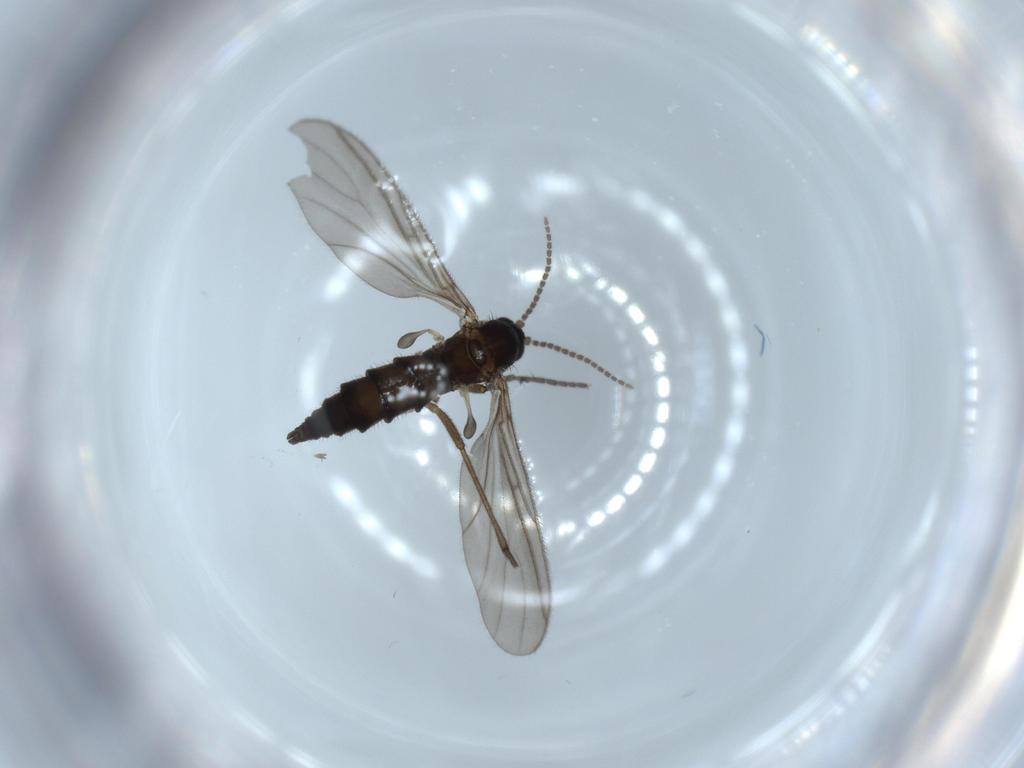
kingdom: Animalia
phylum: Arthropoda
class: Insecta
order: Diptera
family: Sciaridae
